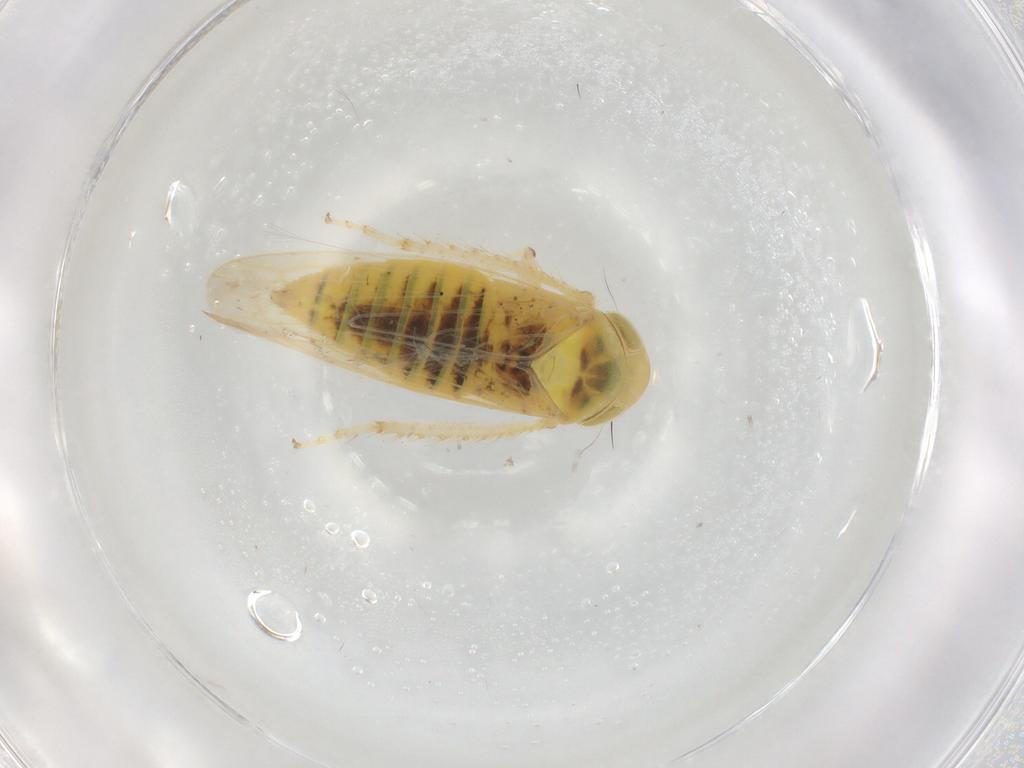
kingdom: Animalia
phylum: Arthropoda
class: Insecta
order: Hemiptera
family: Cicadellidae
